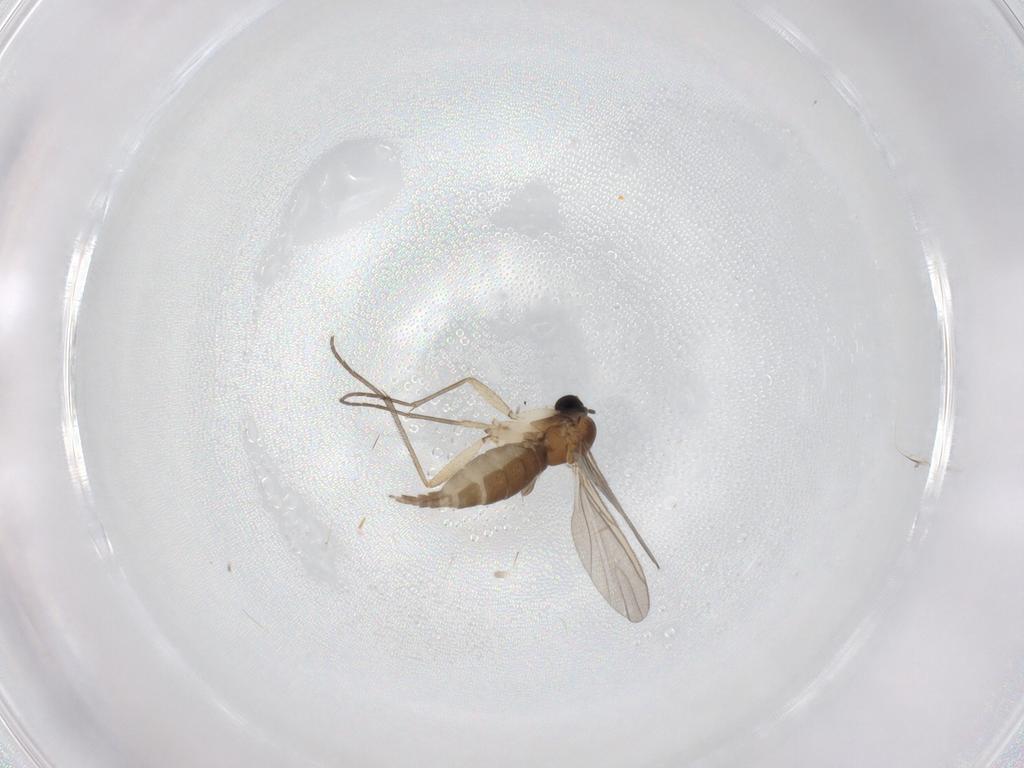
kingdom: Animalia
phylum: Arthropoda
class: Insecta
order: Diptera
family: Sciaridae
